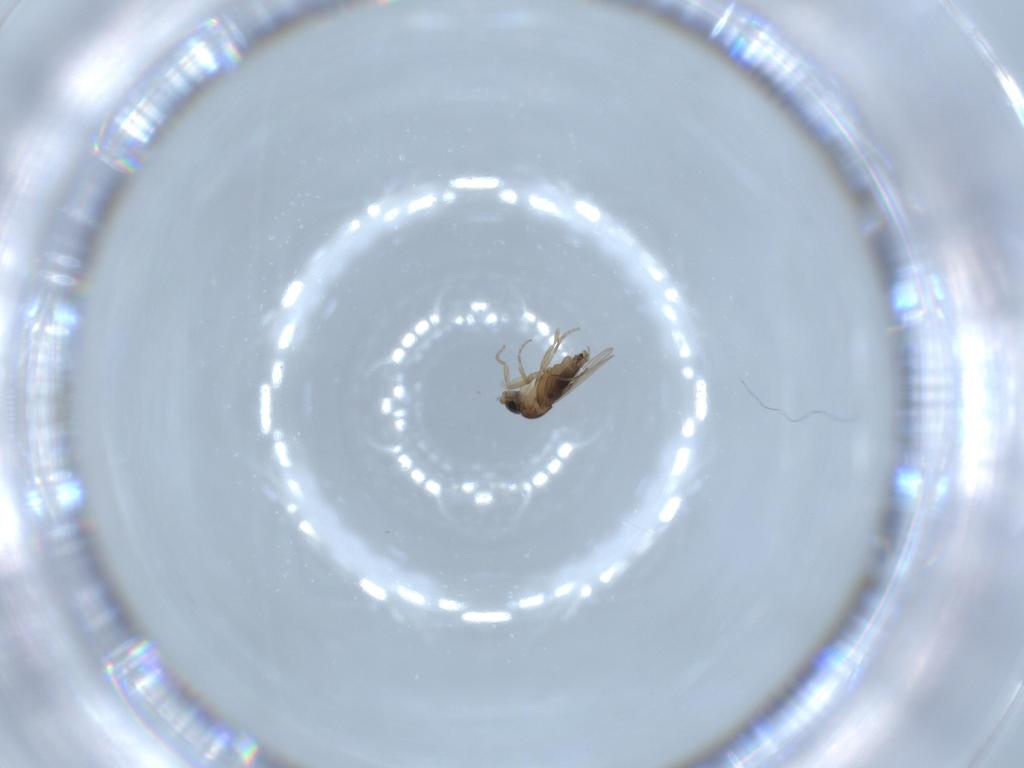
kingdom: Animalia
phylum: Arthropoda
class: Insecta
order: Diptera
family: Phoridae
